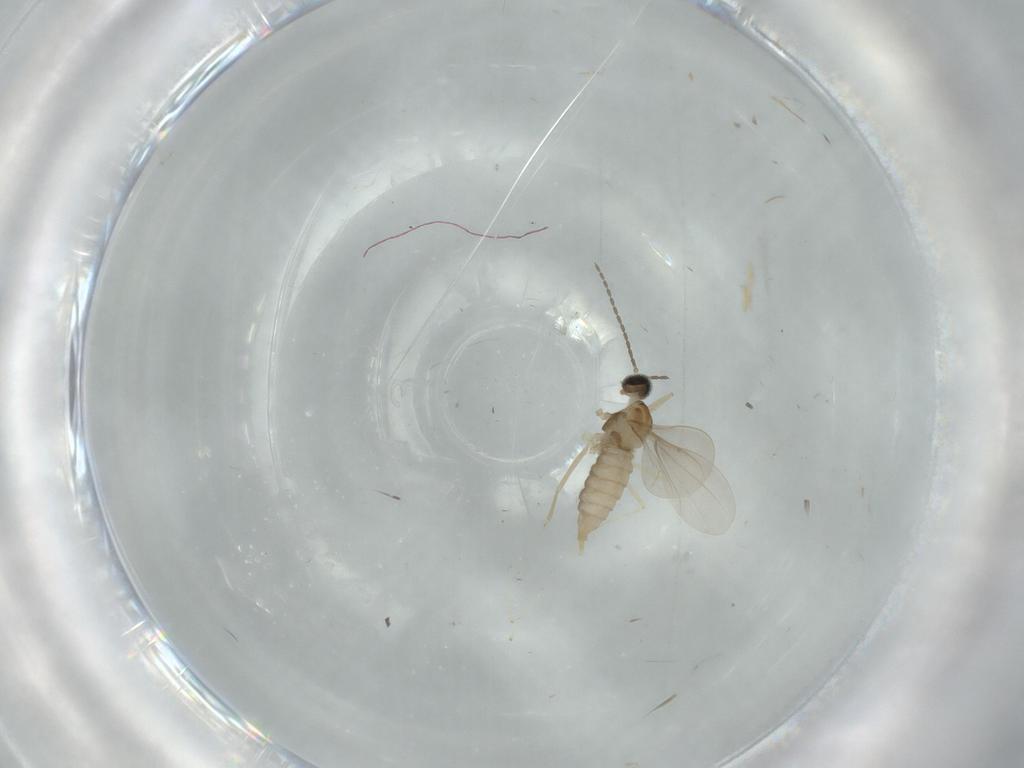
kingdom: Animalia
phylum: Arthropoda
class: Insecta
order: Diptera
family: Cecidomyiidae
